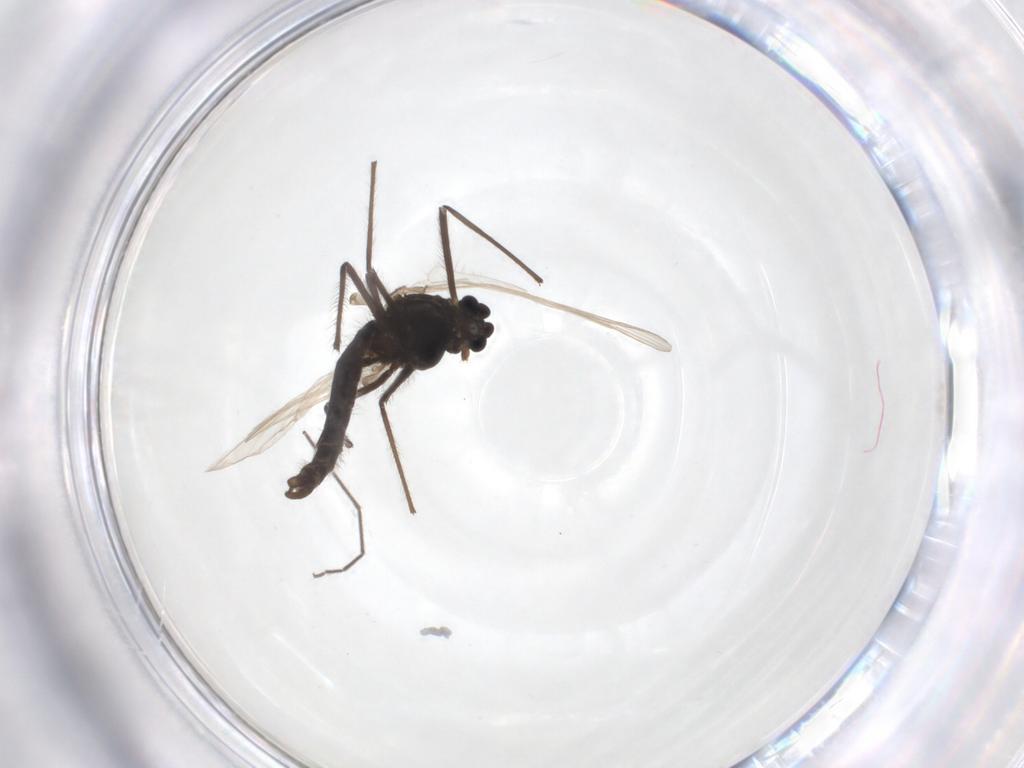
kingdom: Animalia
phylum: Arthropoda
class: Insecta
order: Diptera
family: Chironomidae
